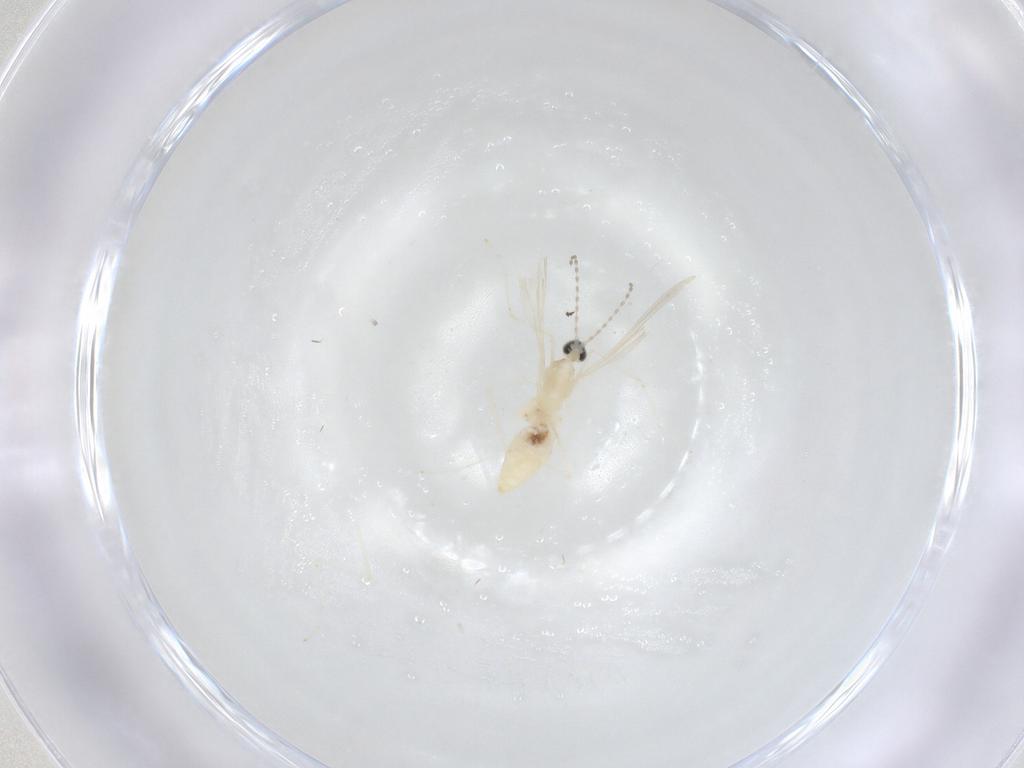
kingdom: Animalia
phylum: Arthropoda
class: Insecta
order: Diptera
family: Cecidomyiidae
